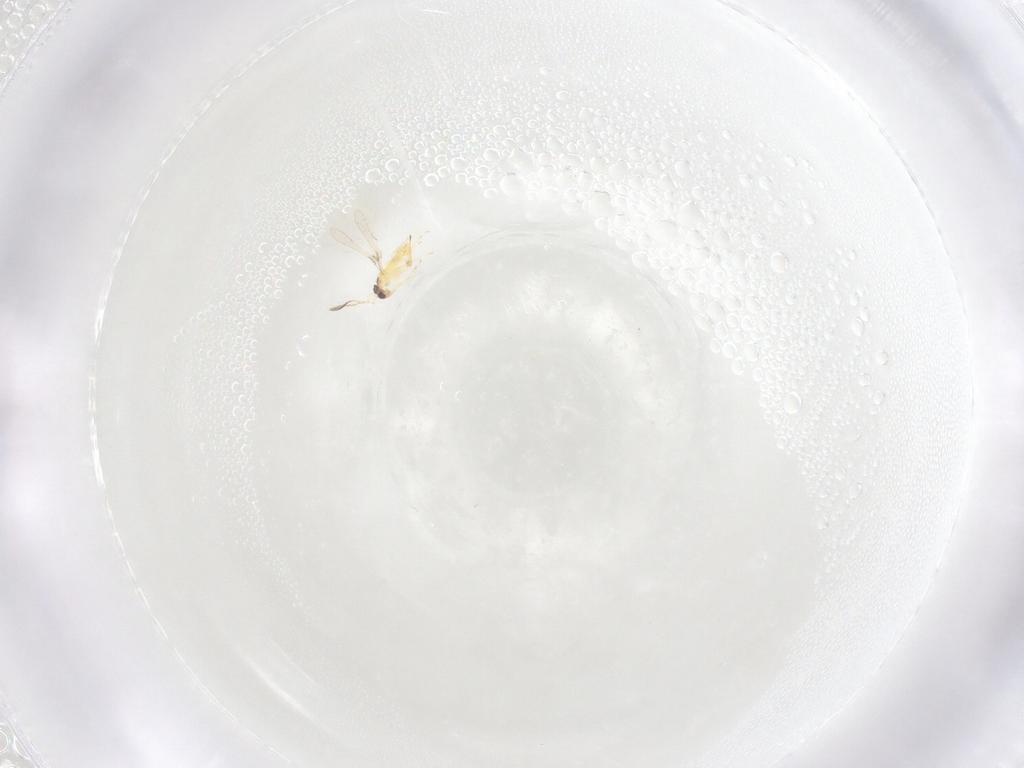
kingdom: Animalia
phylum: Arthropoda
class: Insecta
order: Hymenoptera
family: Mymaridae
